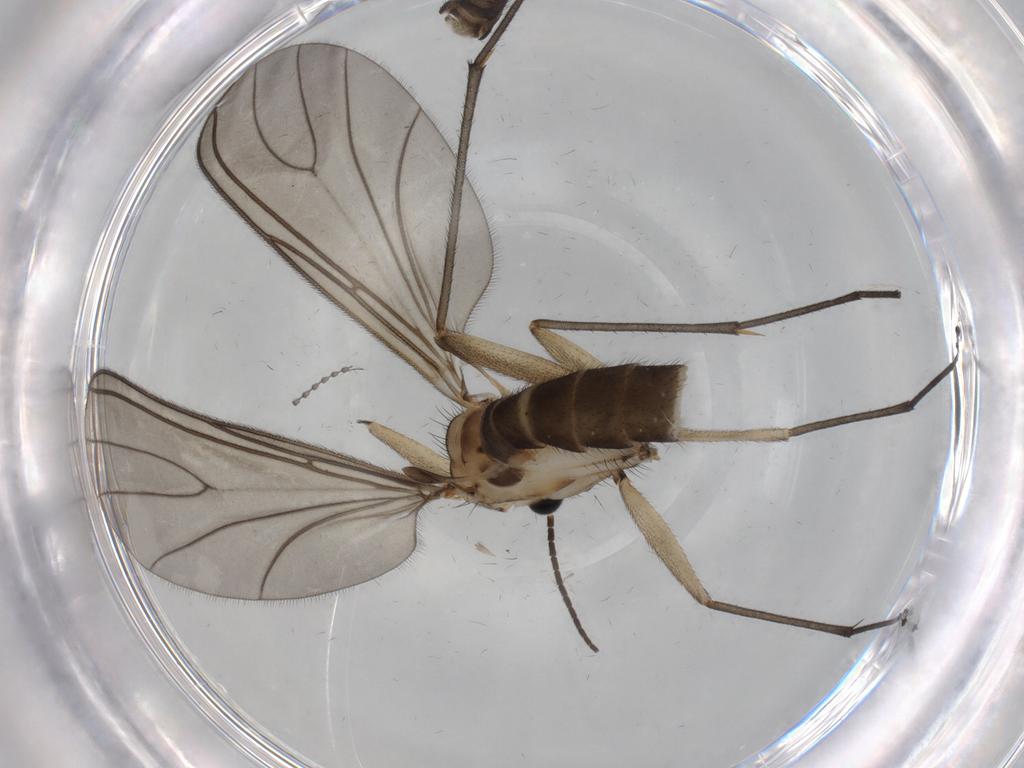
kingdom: Animalia
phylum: Arthropoda
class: Insecta
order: Diptera
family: Sciaridae
